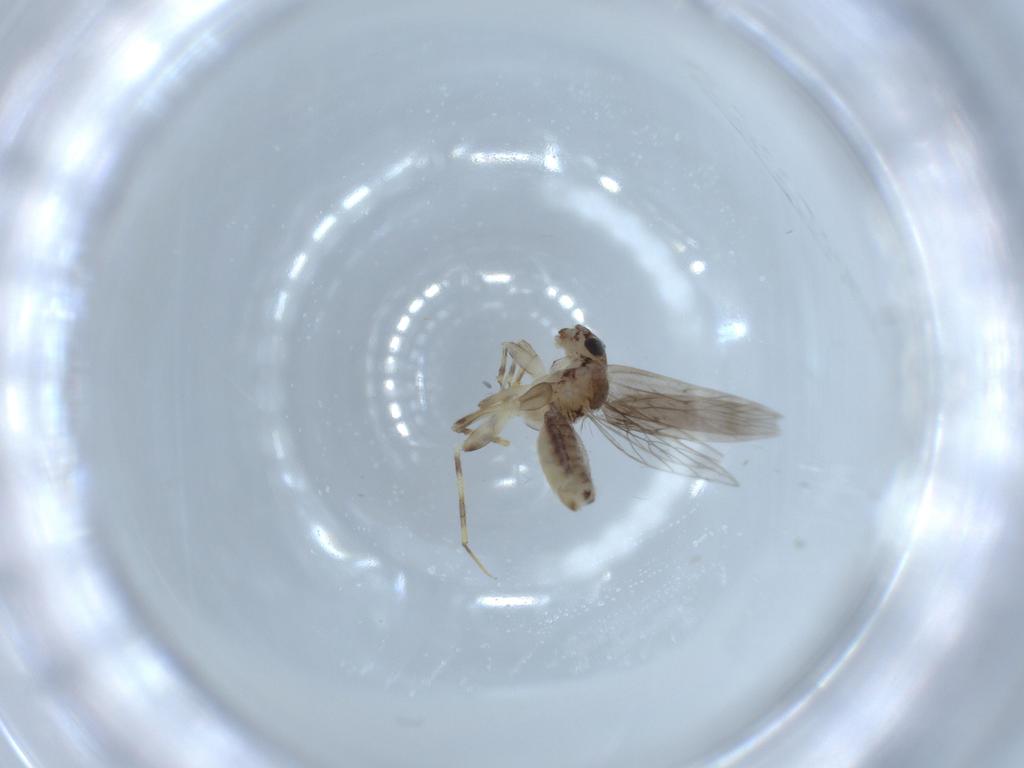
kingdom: Animalia
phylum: Arthropoda
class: Insecta
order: Psocodea
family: Lepidopsocidae
